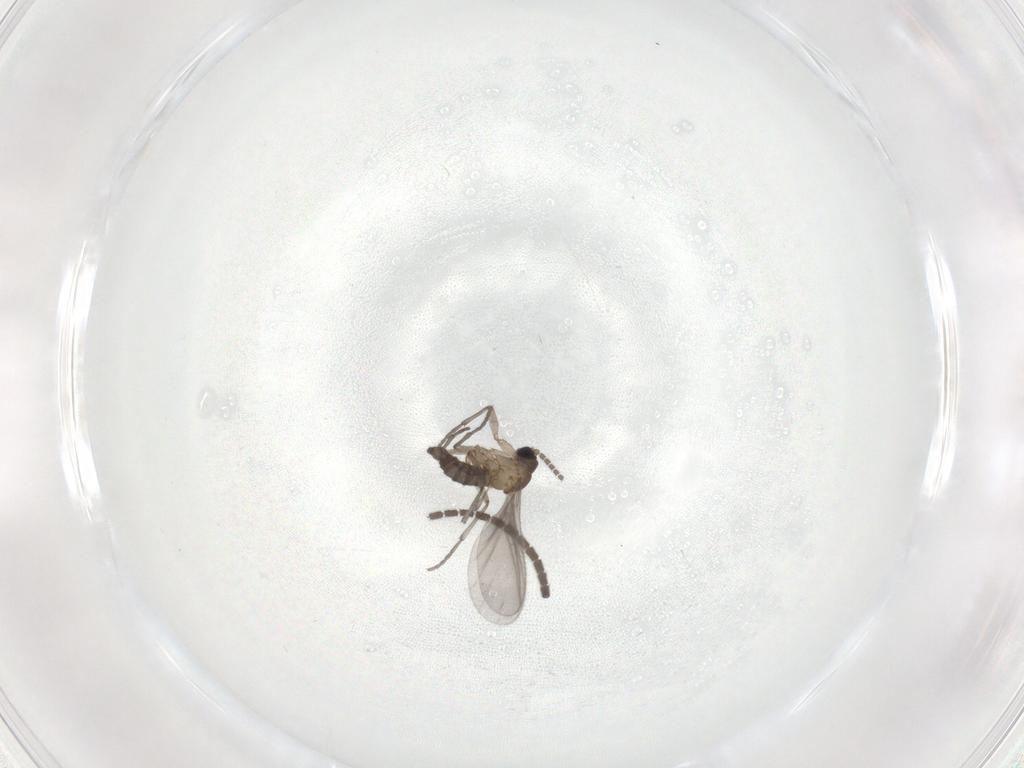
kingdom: Animalia
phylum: Arthropoda
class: Insecta
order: Diptera
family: Sciaridae
